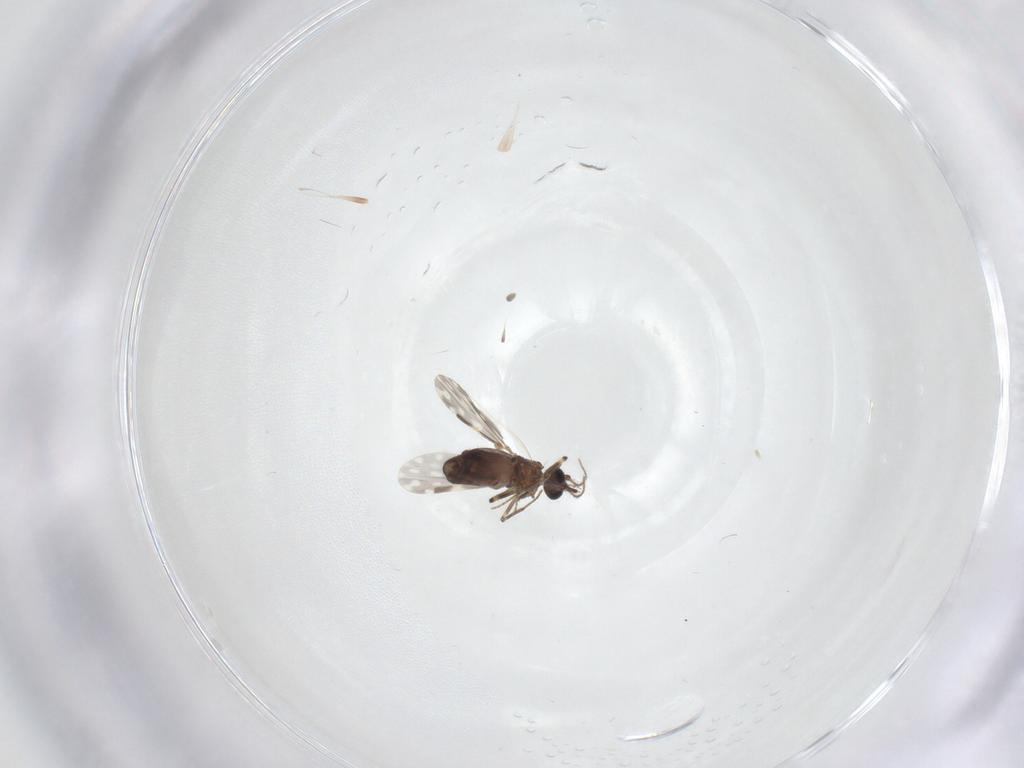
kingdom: Animalia
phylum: Arthropoda
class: Insecta
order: Diptera
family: Ceratopogonidae
